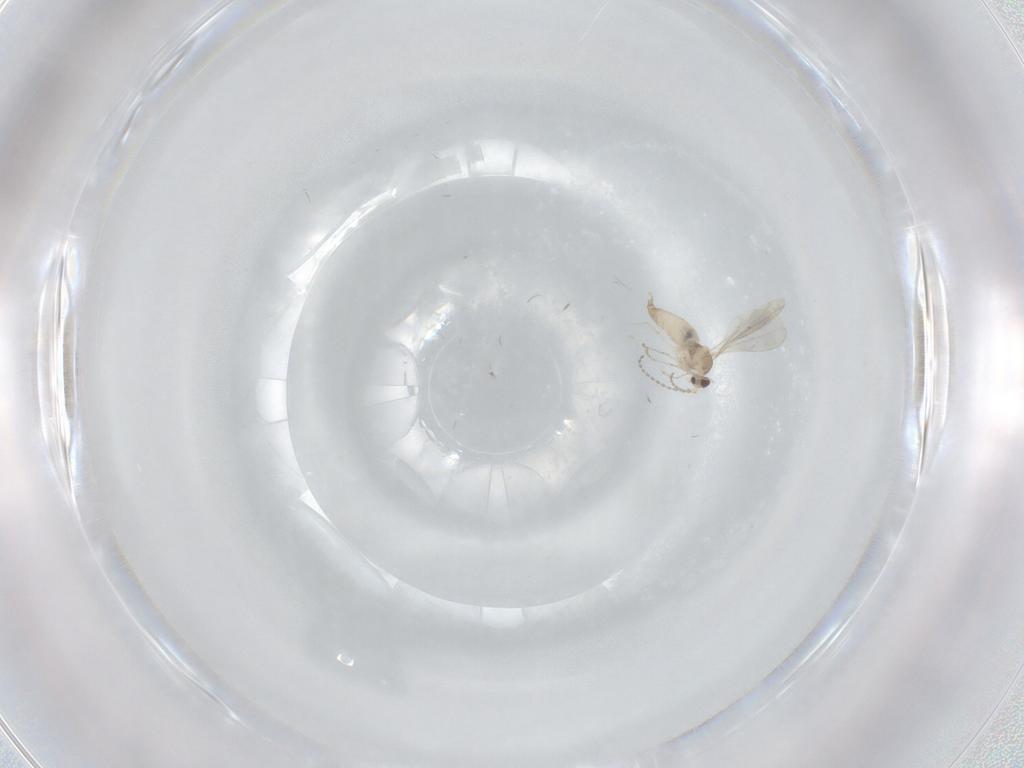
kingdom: Animalia
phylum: Arthropoda
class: Insecta
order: Diptera
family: Cecidomyiidae
